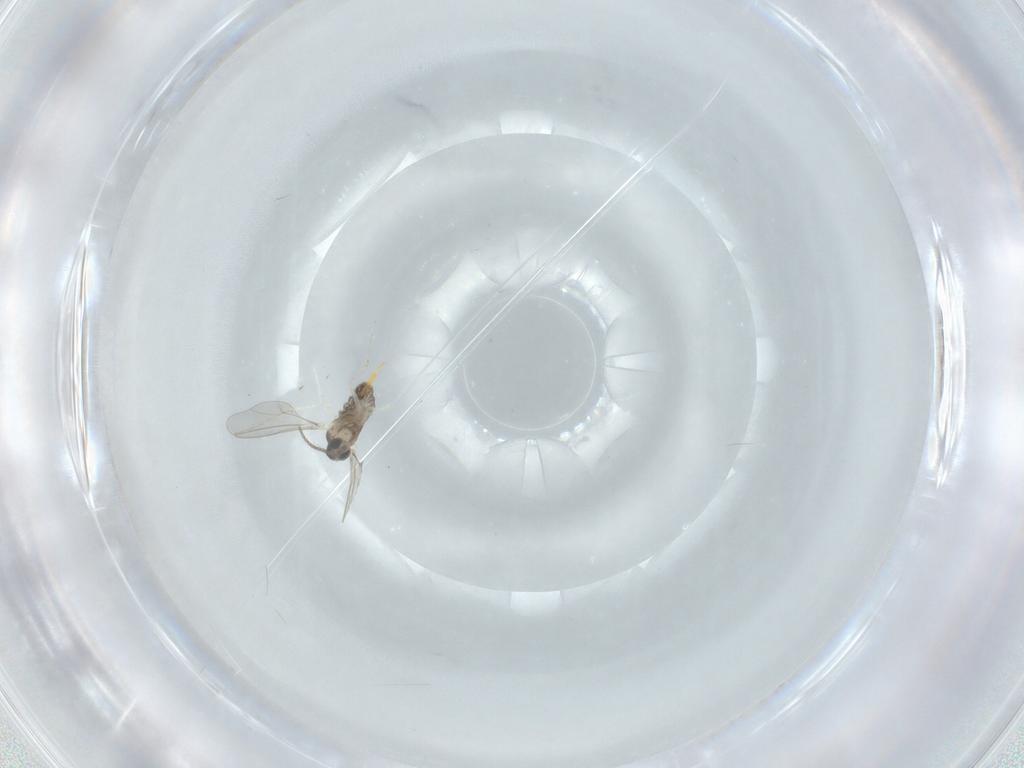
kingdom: Animalia
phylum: Arthropoda
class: Insecta
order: Diptera
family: Cecidomyiidae
